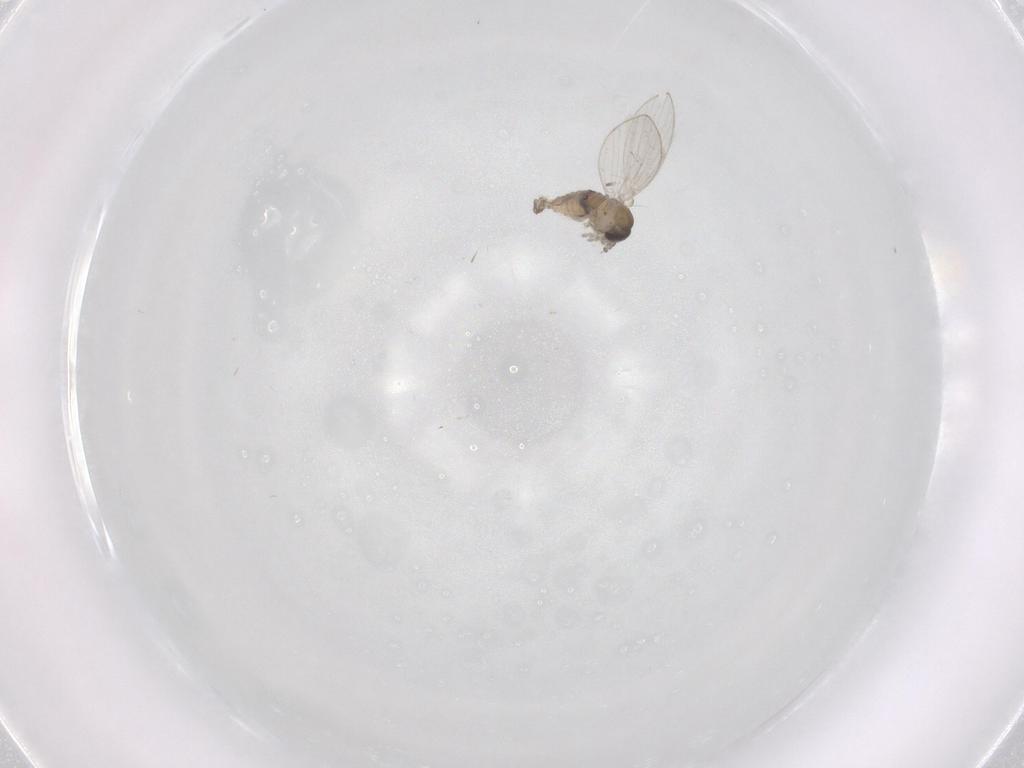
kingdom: Animalia
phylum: Arthropoda
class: Insecta
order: Diptera
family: Psychodidae
